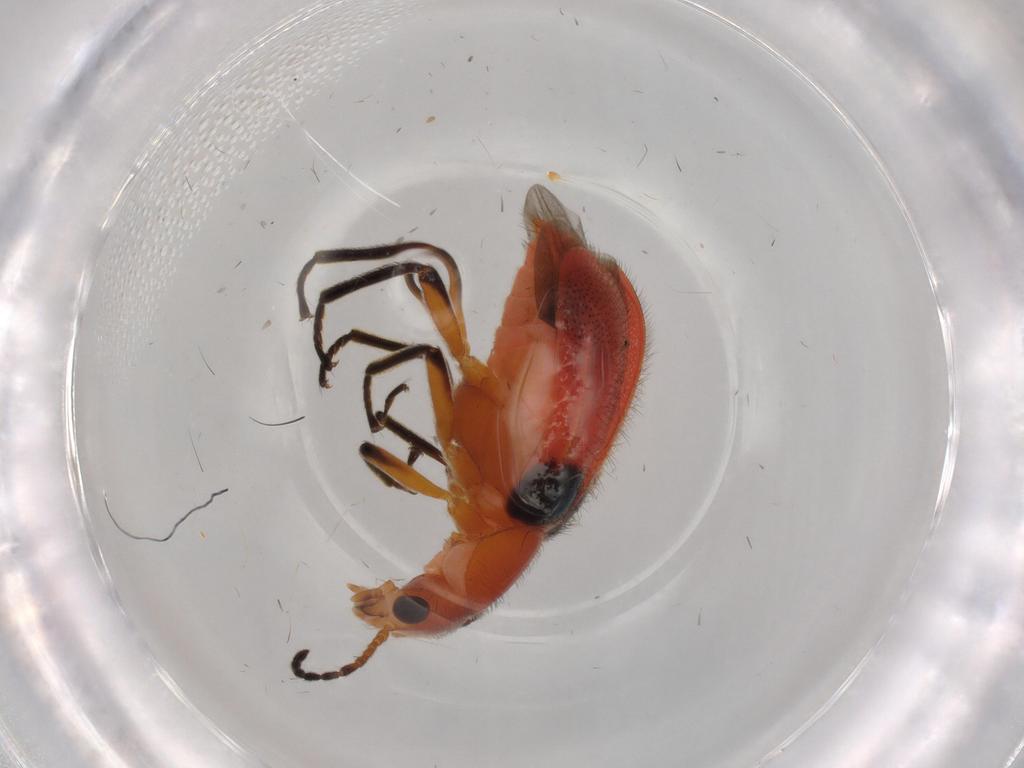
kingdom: Animalia
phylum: Arthropoda
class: Insecta
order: Coleoptera
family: Melyridae
